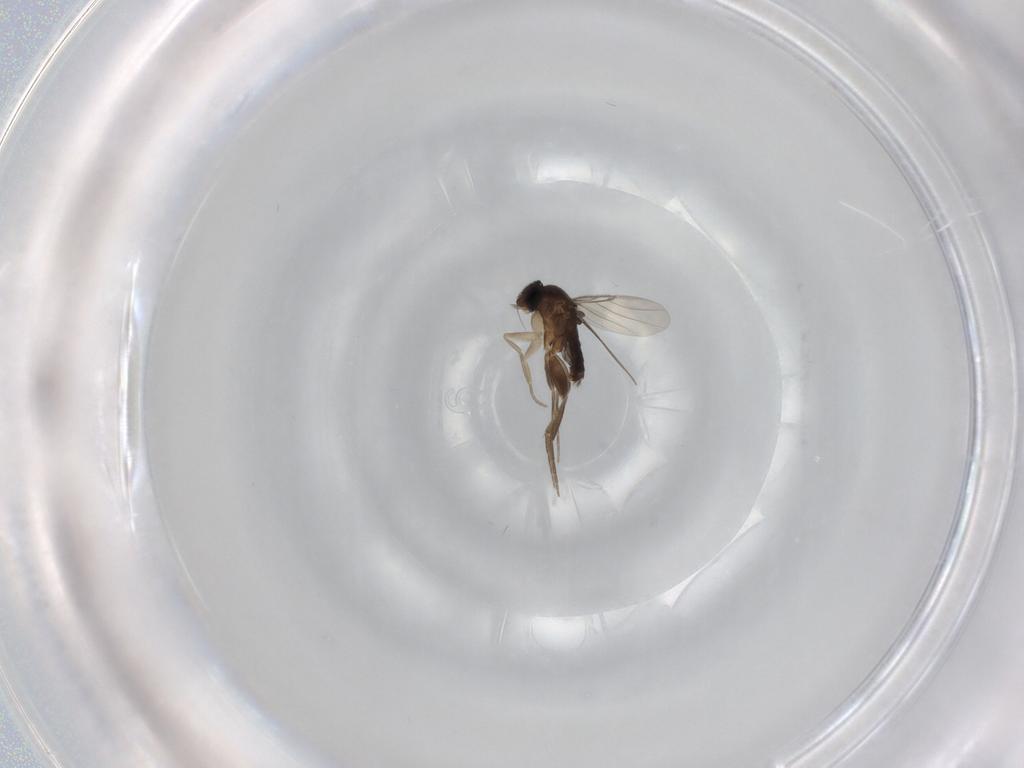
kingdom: Animalia
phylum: Arthropoda
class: Insecta
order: Diptera
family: Phoridae
